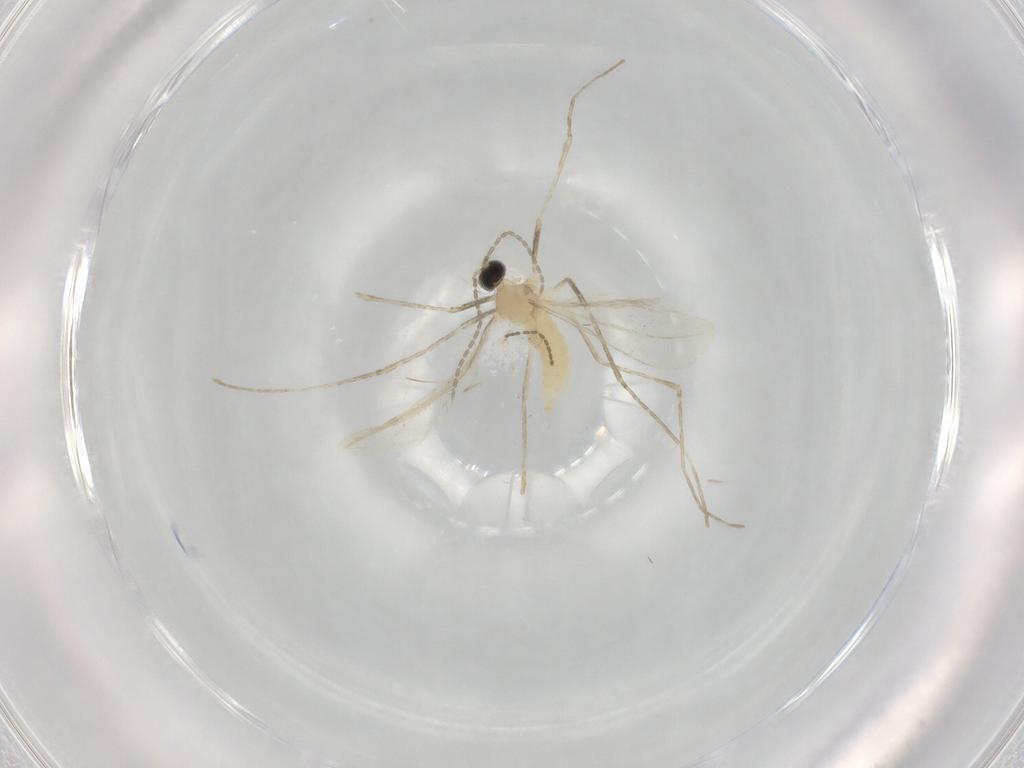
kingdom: Animalia
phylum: Arthropoda
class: Insecta
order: Diptera
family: Cecidomyiidae
